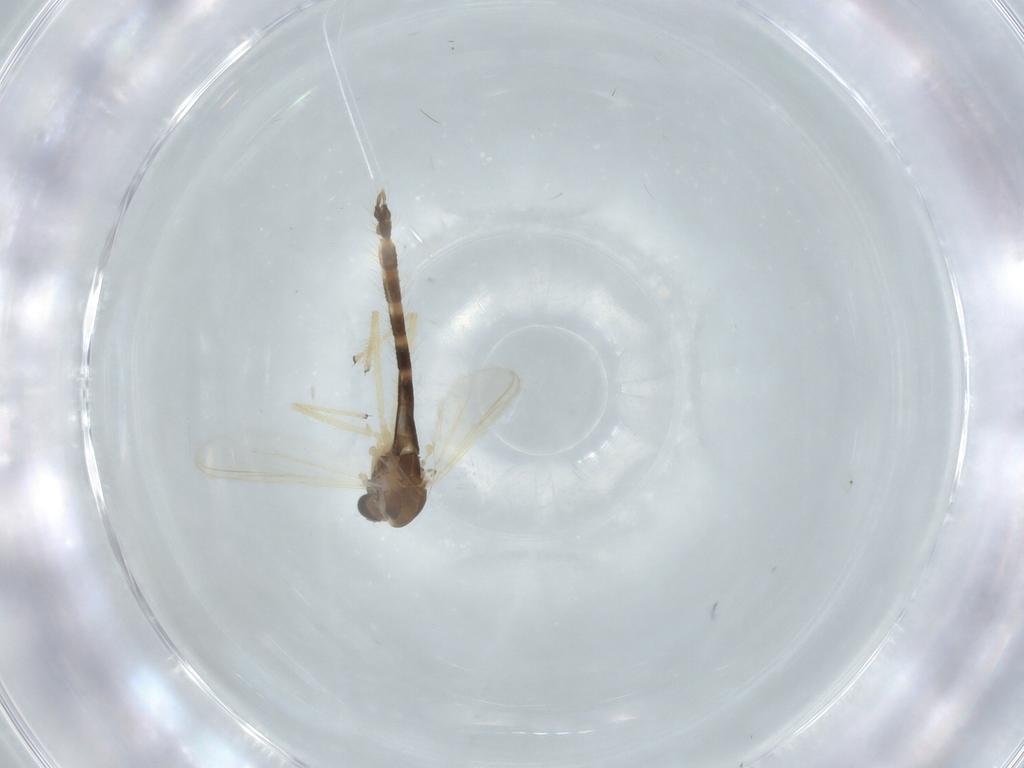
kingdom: Animalia
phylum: Arthropoda
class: Insecta
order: Diptera
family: Chironomidae
